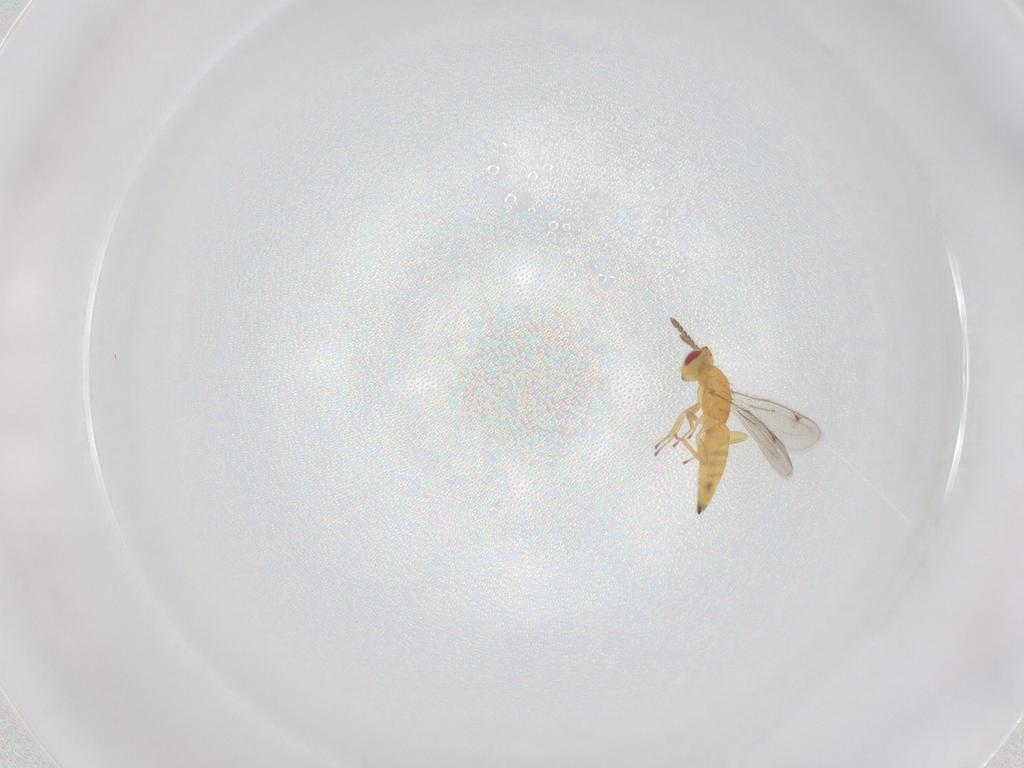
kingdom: Animalia
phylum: Arthropoda
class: Insecta
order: Hymenoptera
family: Eulophidae
